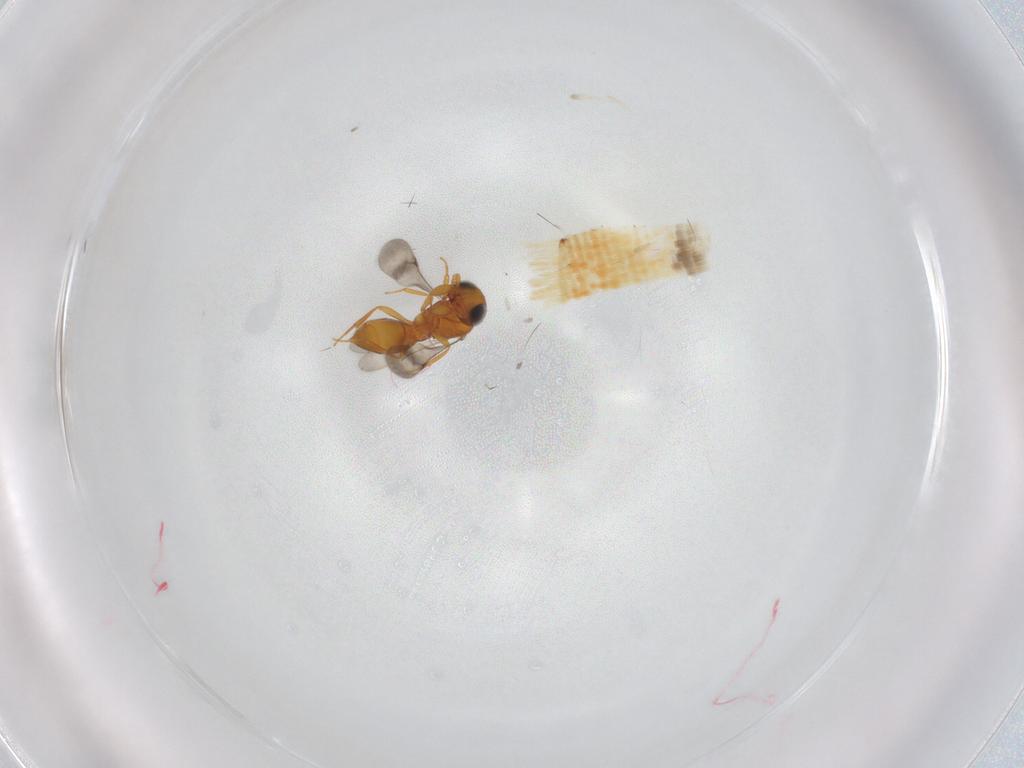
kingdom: Animalia
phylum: Arthropoda
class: Insecta
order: Hymenoptera
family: Scelionidae
